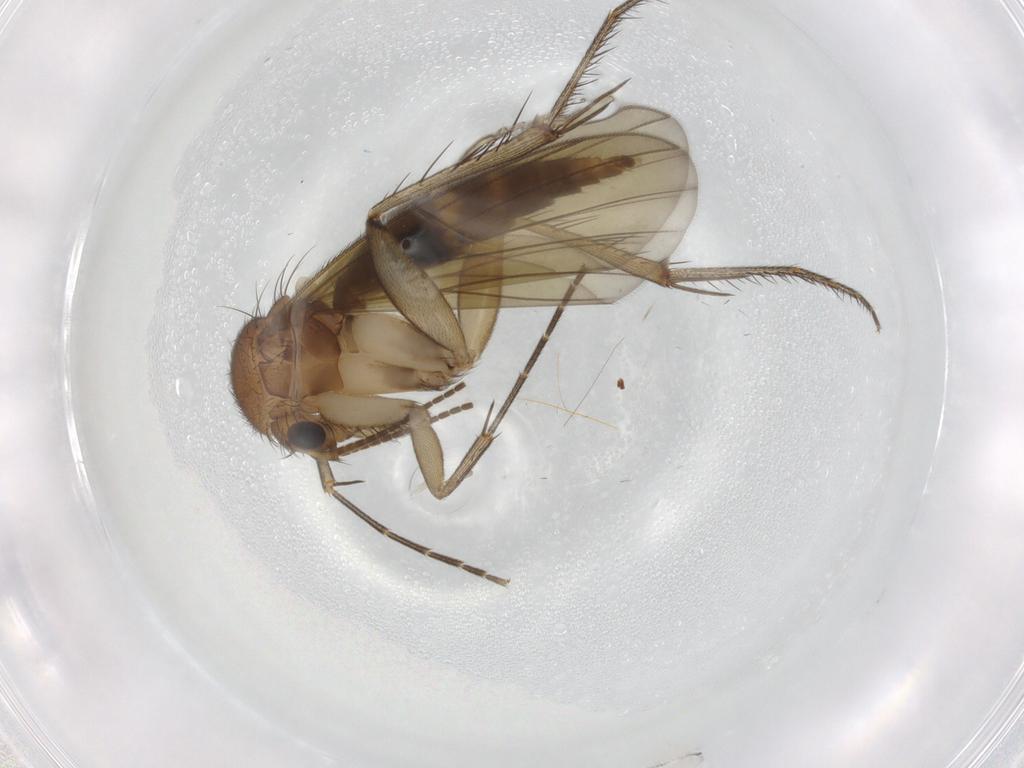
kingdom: Animalia
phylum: Arthropoda
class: Insecta
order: Diptera
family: Mycetophilidae
